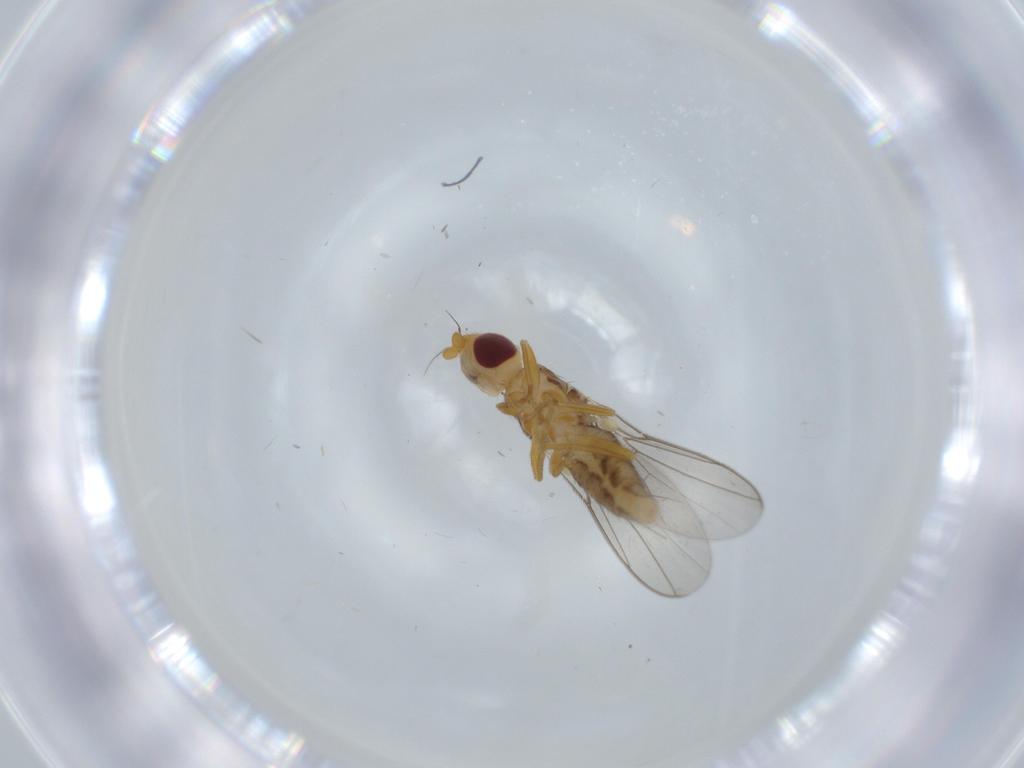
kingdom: Animalia
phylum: Arthropoda
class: Insecta
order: Diptera
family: Chloropidae
